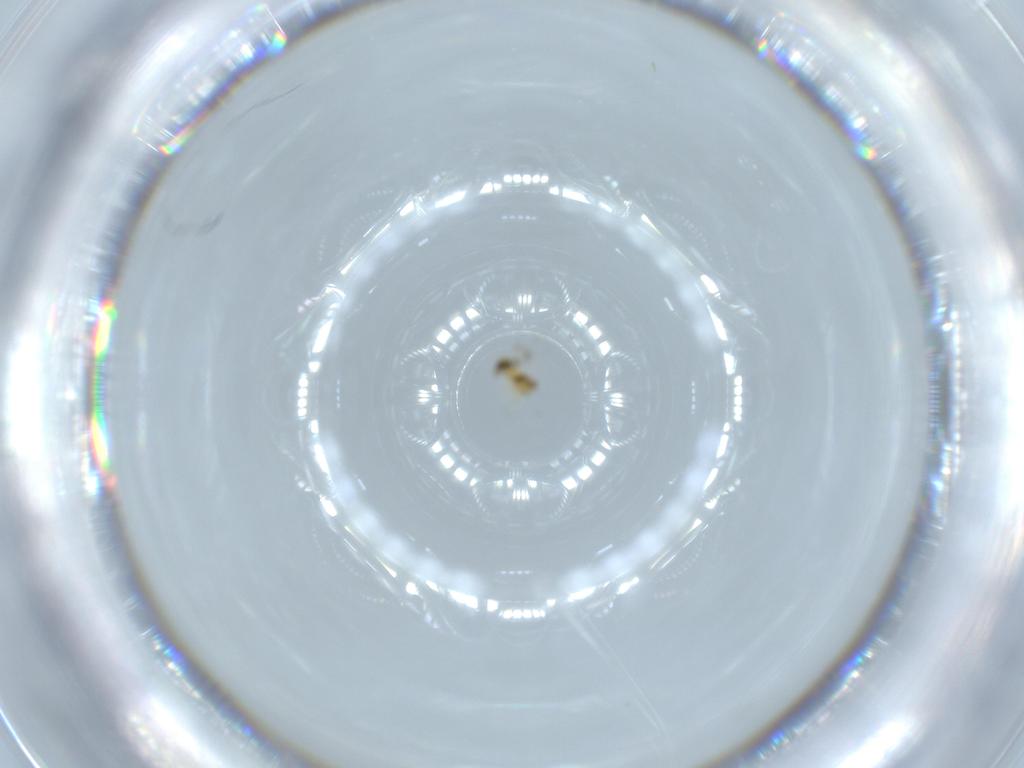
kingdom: Animalia
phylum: Arthropoda
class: Insecta
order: Hymenoptera
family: Signiphoridae
